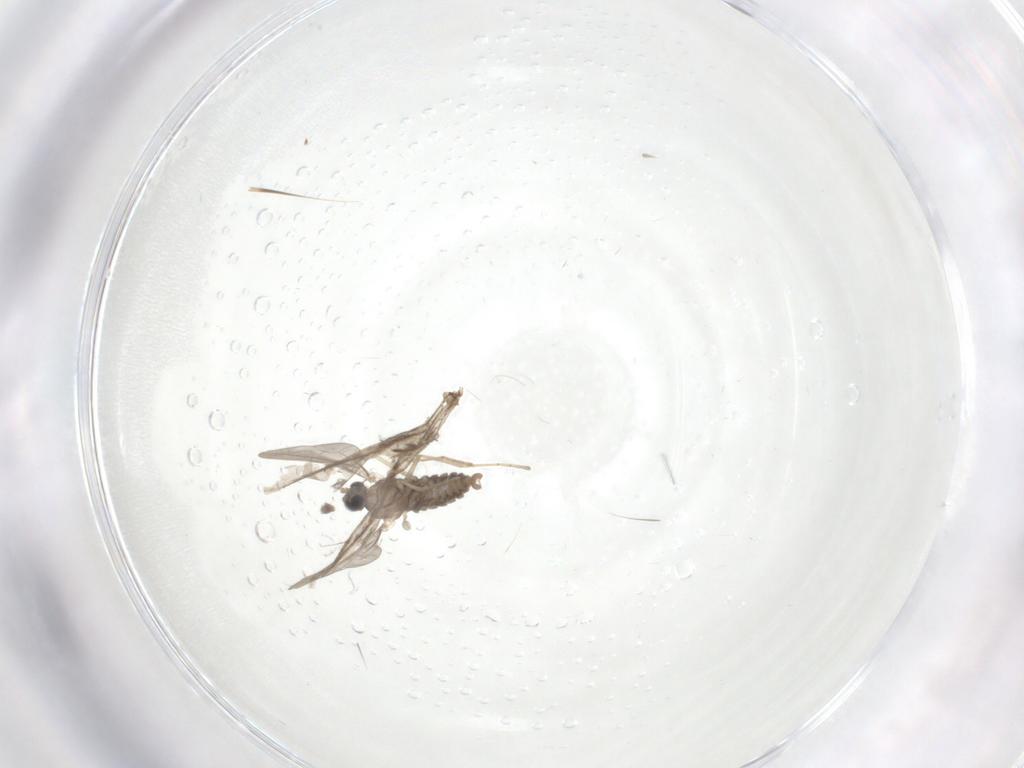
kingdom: Animalia
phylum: Arthropoda
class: Insecta
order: Diptera
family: Cecidomyiidae
